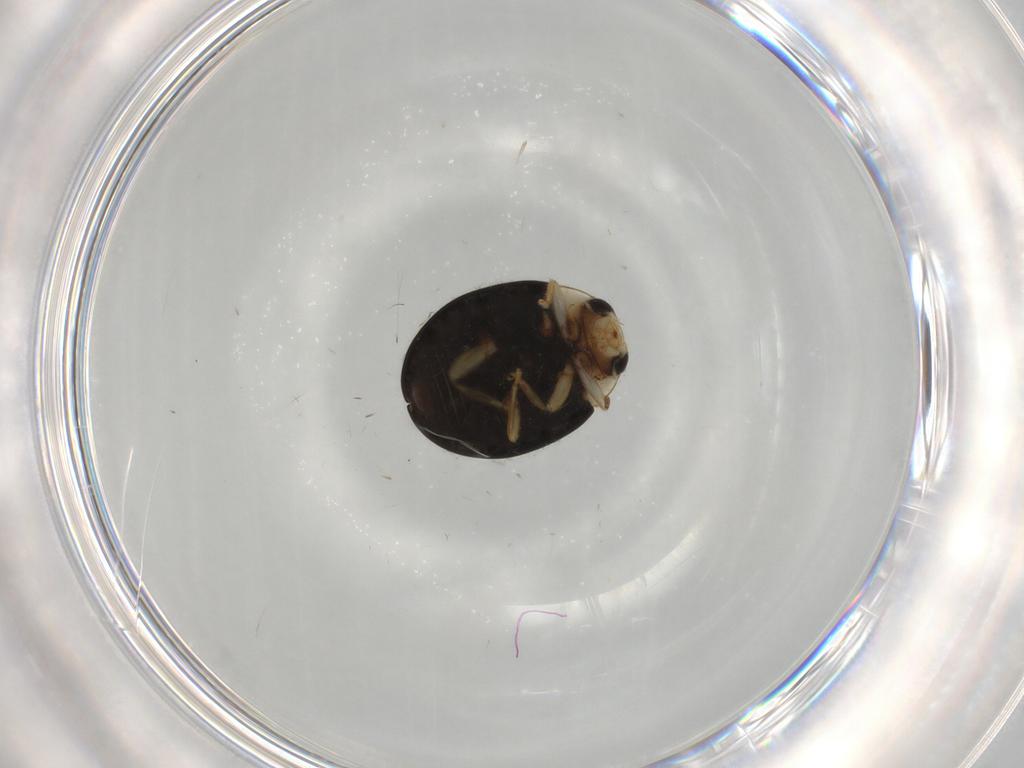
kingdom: Animalia
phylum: Arthropoda
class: Insecta
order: Coleoptera
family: Coccinellidae
